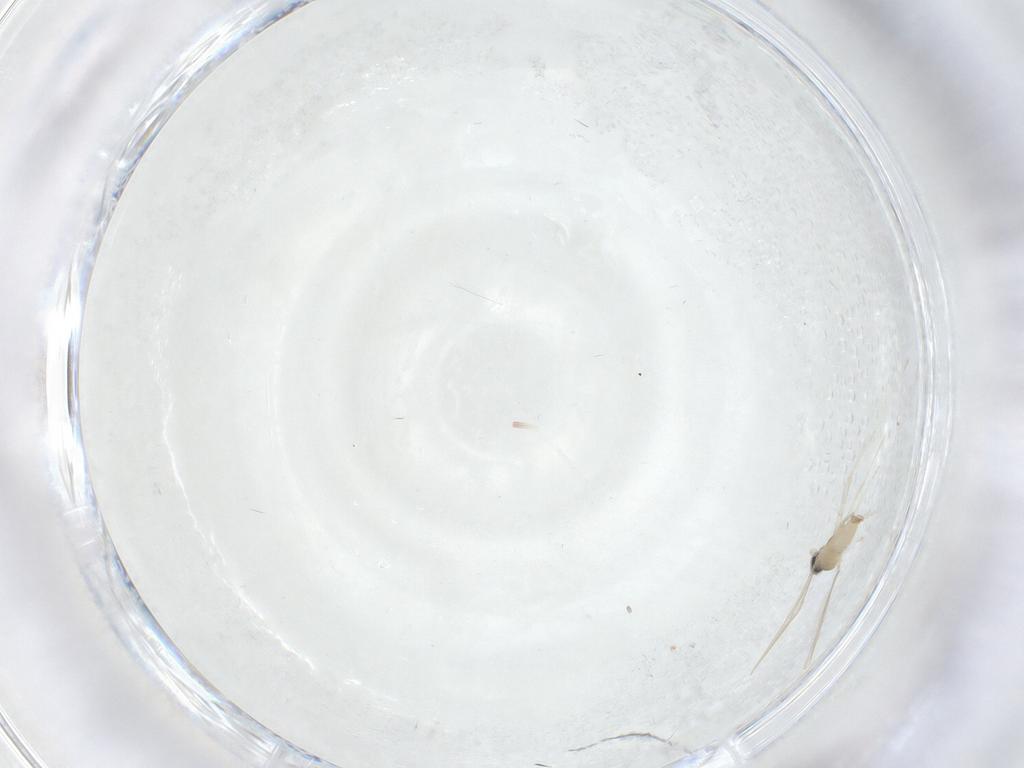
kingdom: Animalia
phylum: Arthropoda
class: Insecta
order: Diptera
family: Cecidomyiidae
